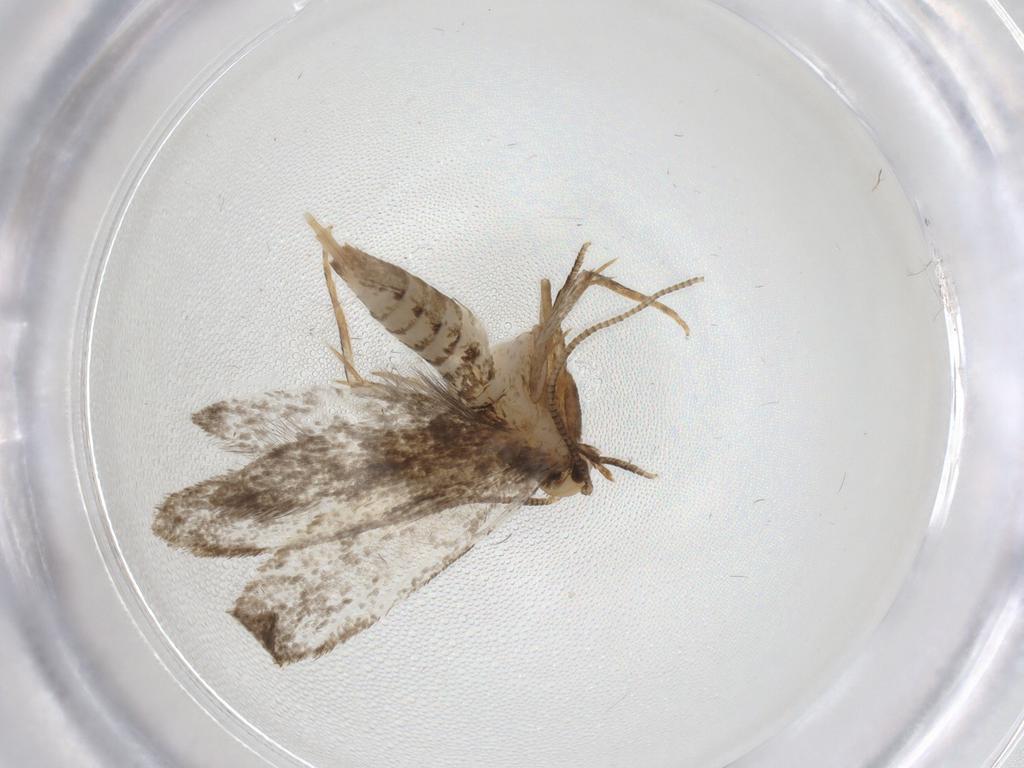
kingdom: Animalia
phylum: Arthropoda
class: Insecta
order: Lepidoptera
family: Tineidae
